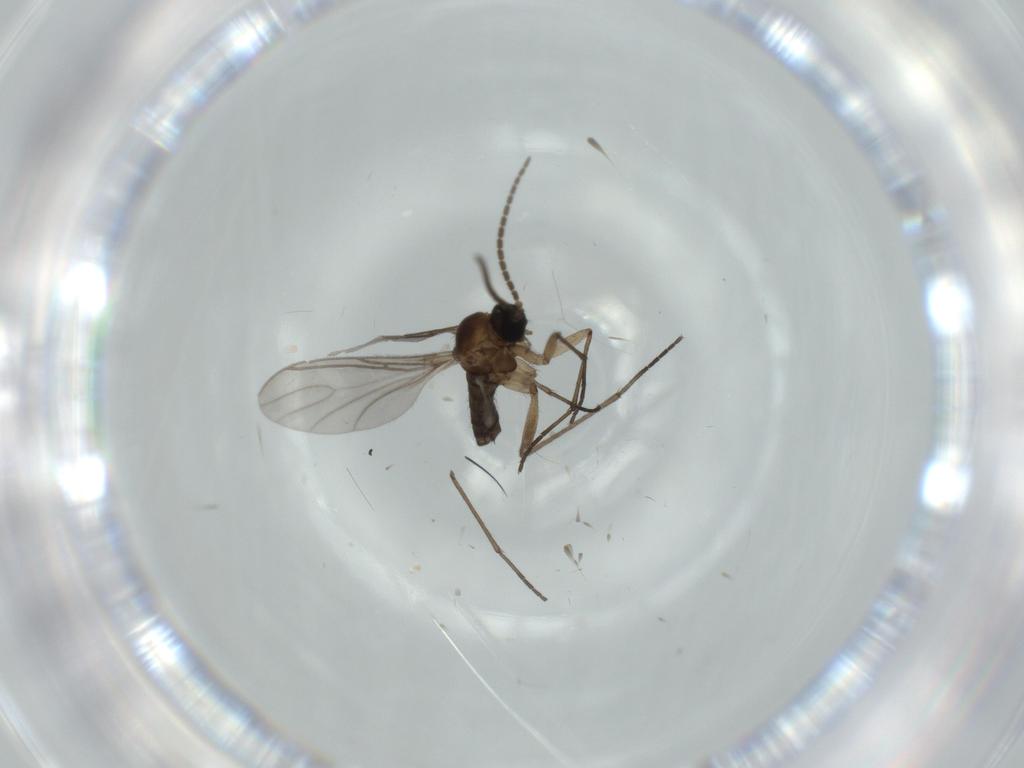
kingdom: Animalia
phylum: Arthropoda
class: Insecta
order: Diptera
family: Sciaridae
